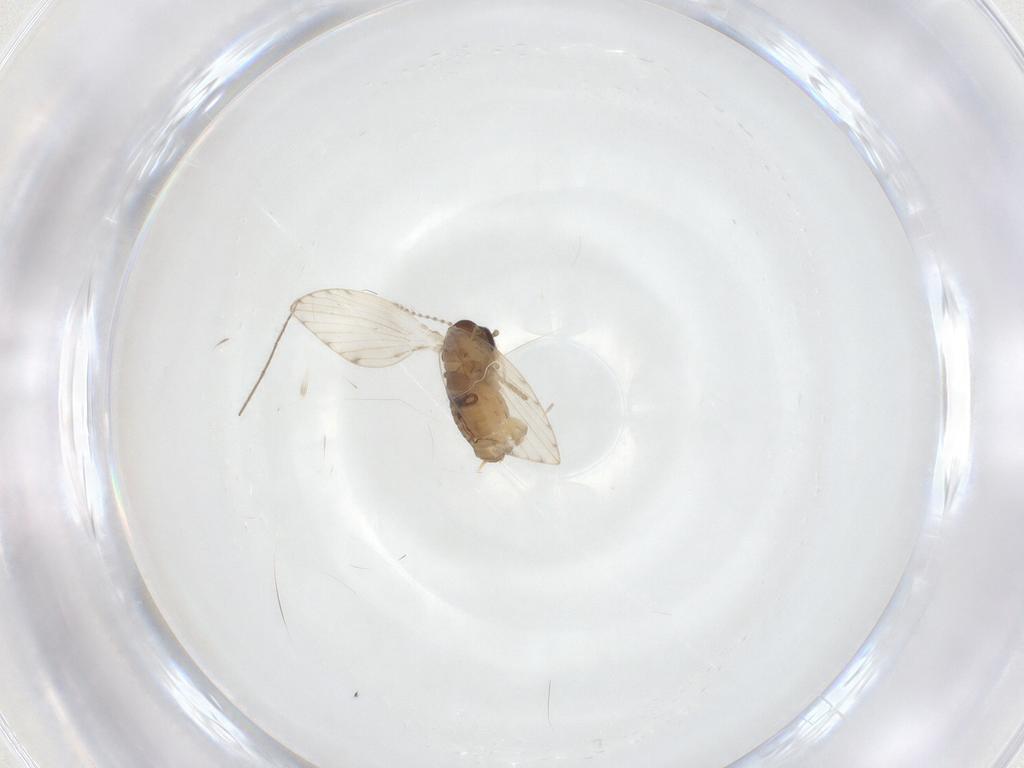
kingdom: Animalia
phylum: Arthropoda
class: Insecta
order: Diptera
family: Psychodidae
